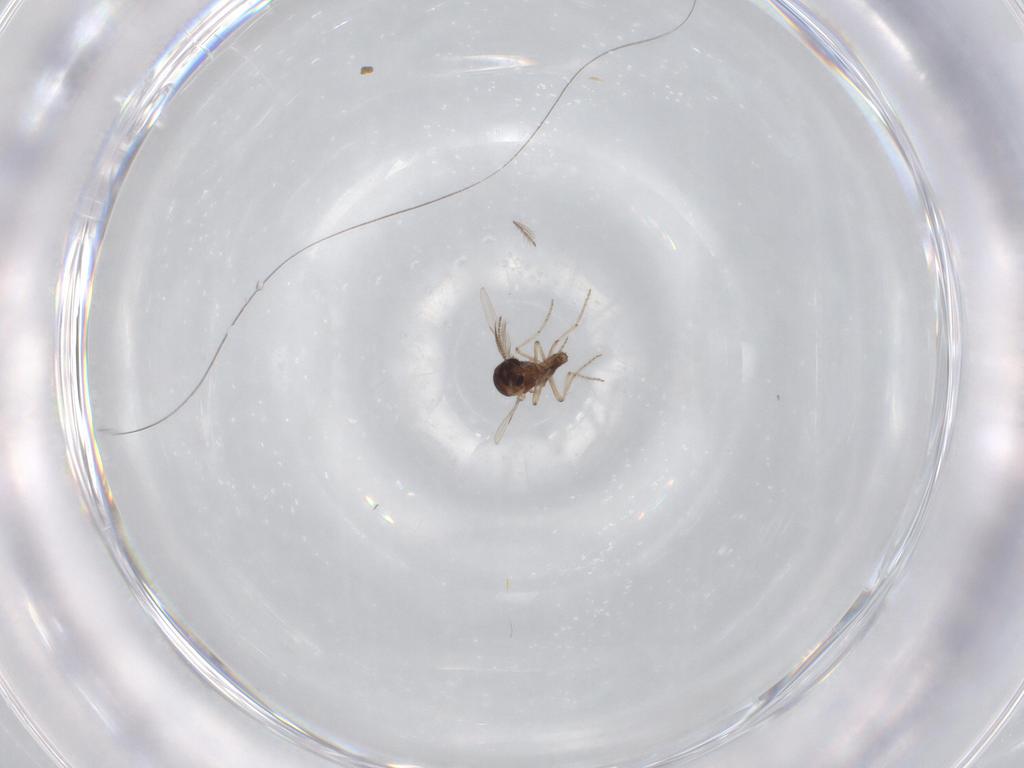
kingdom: Animalia
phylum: Arthropoda
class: Insecta
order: Diptera
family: Ceratopogonidae
